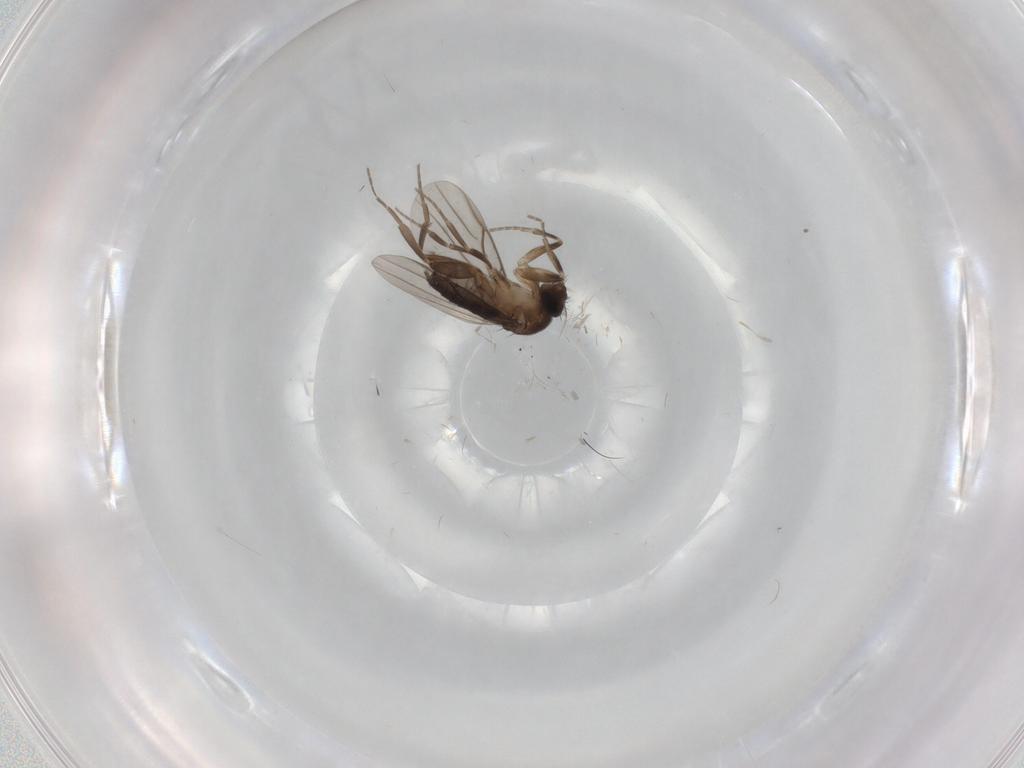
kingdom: Animalia
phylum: Arthropoda
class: Insecta
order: Diptera
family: Phoridae
